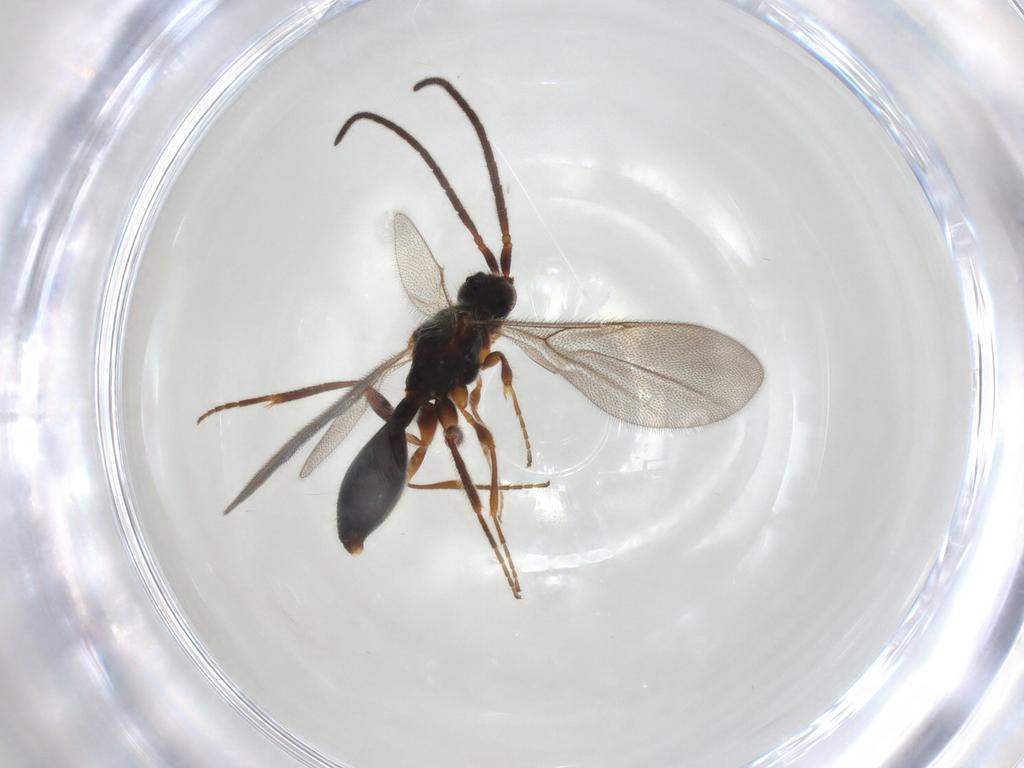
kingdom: Animalia
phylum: Arthropoda
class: Insecta
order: Hymenoptera
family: Diapriidae
